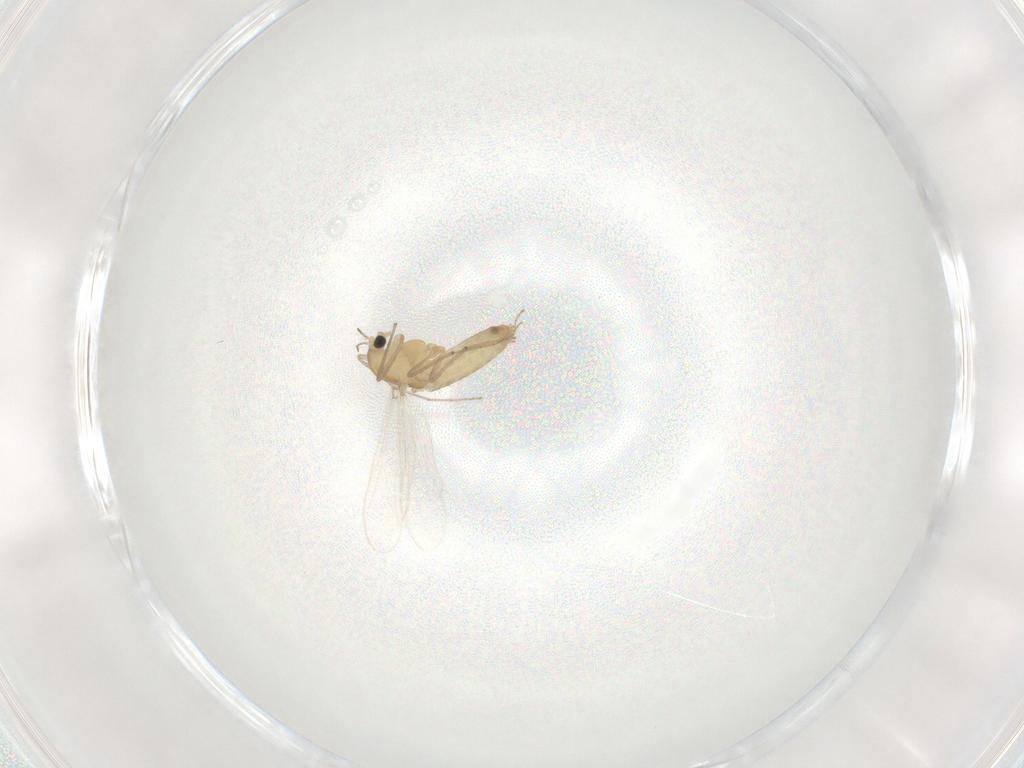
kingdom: Animalia
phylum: Arthropoda
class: Insecta
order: Diptera
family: Chironomidae
